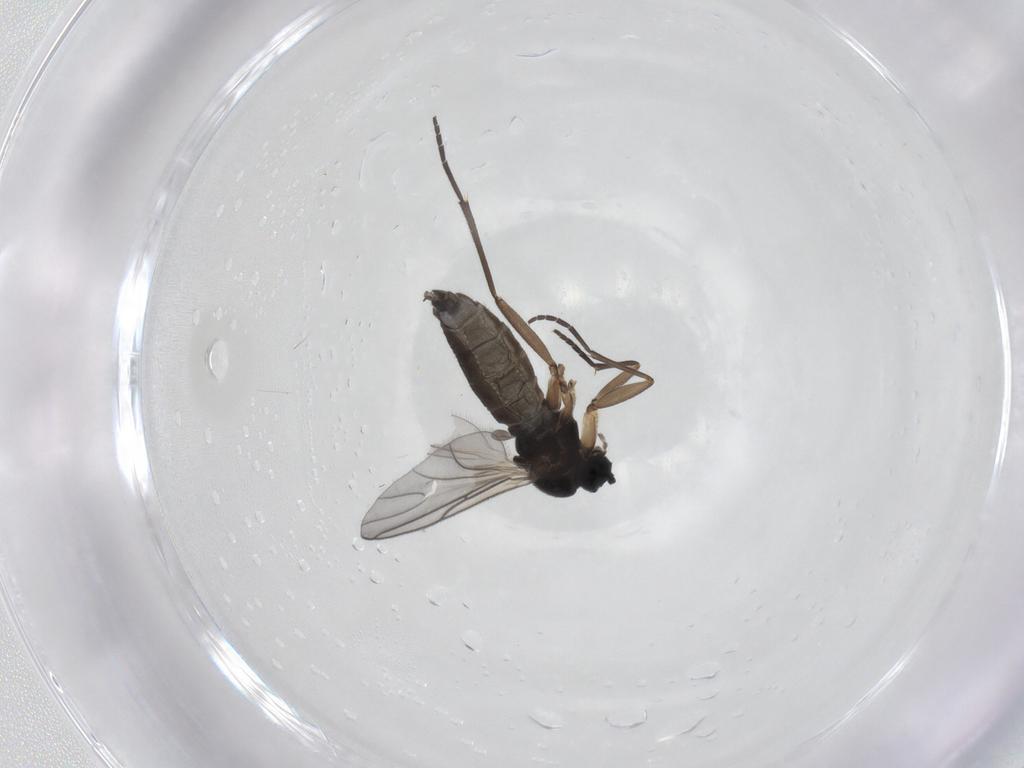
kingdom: Animalia
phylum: Arthropoda
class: Insecta
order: Diptera
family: Sciaridae
